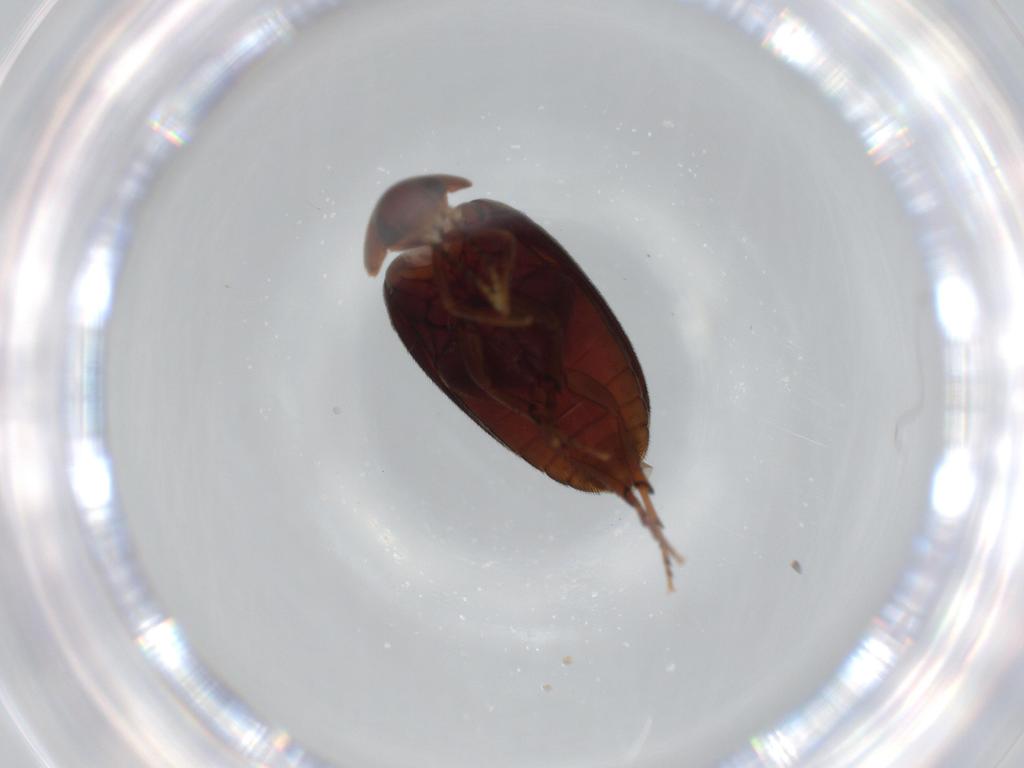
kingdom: Animalia
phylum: Arthropoda
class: Insecta
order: Coleoptera
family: Eucinetidae
